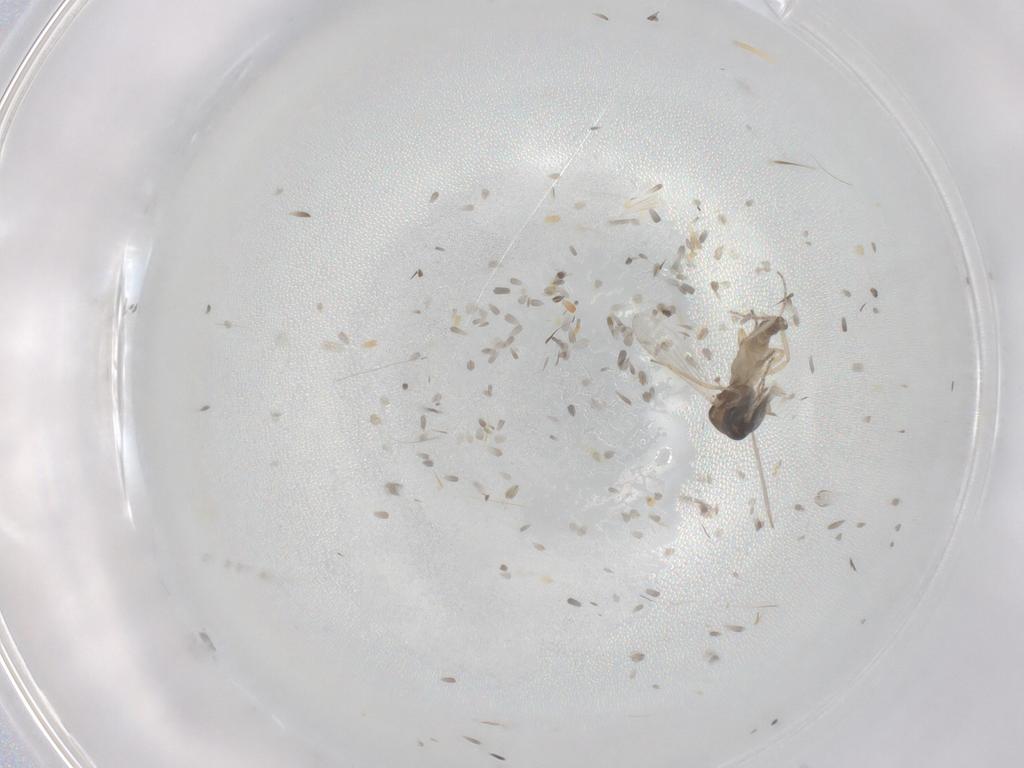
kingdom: Animalia
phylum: Arthropoda
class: Insecta
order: Diptera
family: Ceratopogonidae
